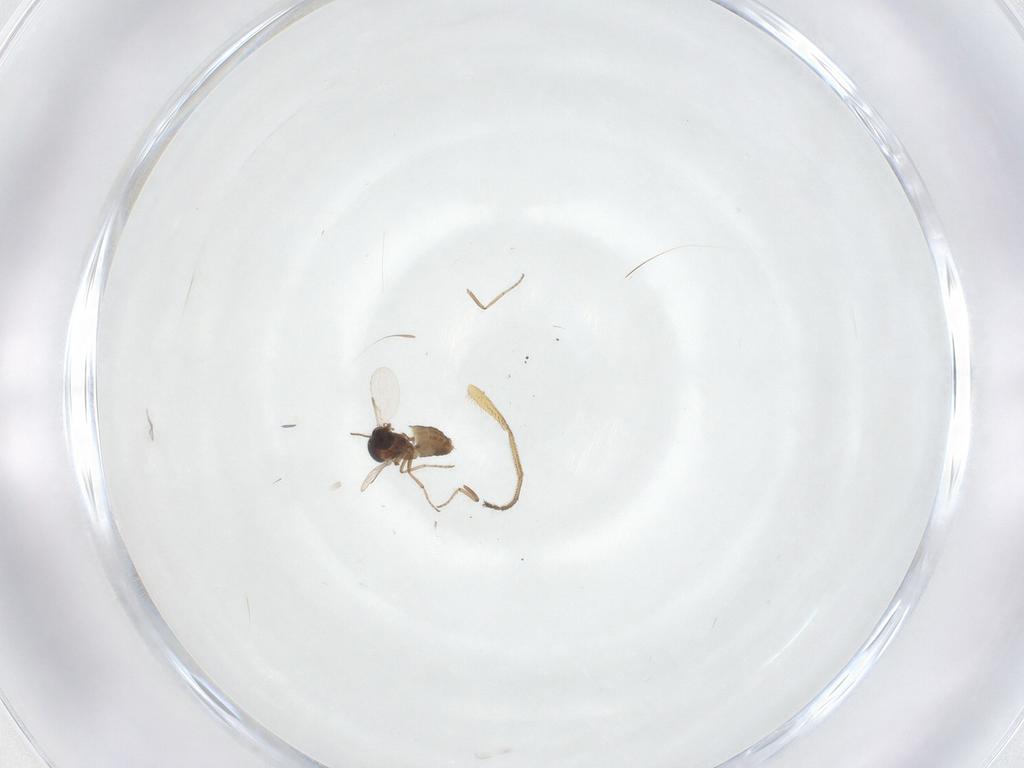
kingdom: Animalia
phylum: Arthropoda
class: Insecta
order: Diptera
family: Ceratopogonidae
